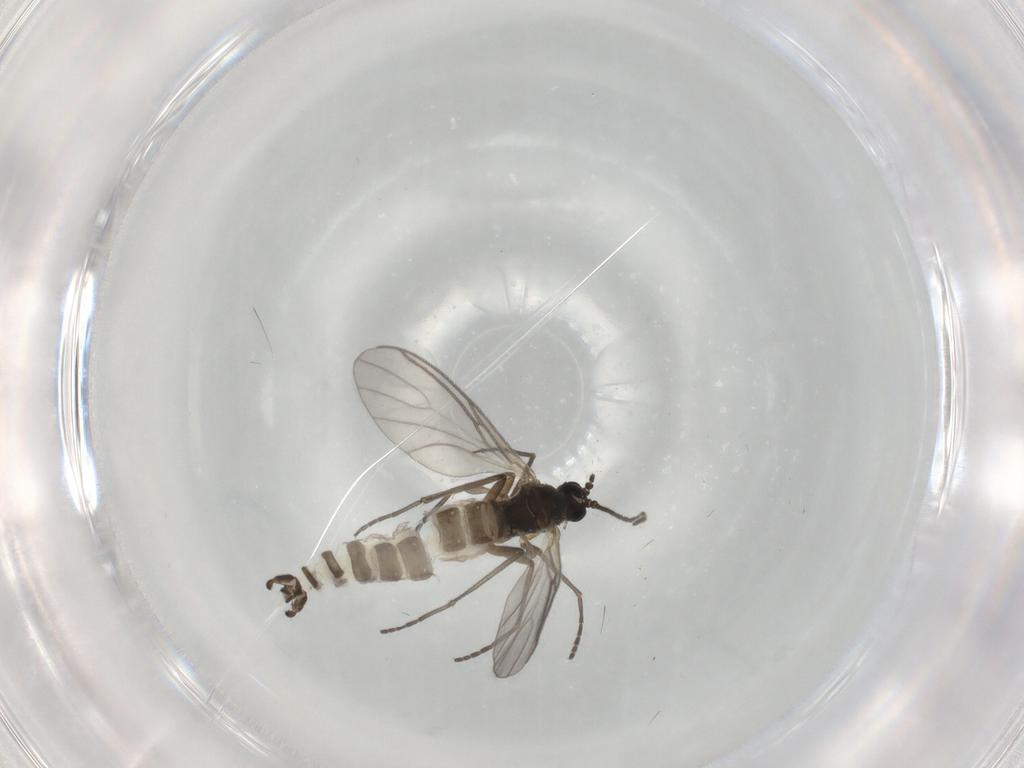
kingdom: Animalia
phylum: Arthropoda
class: Insecta
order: Diptera
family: Sciaridae
